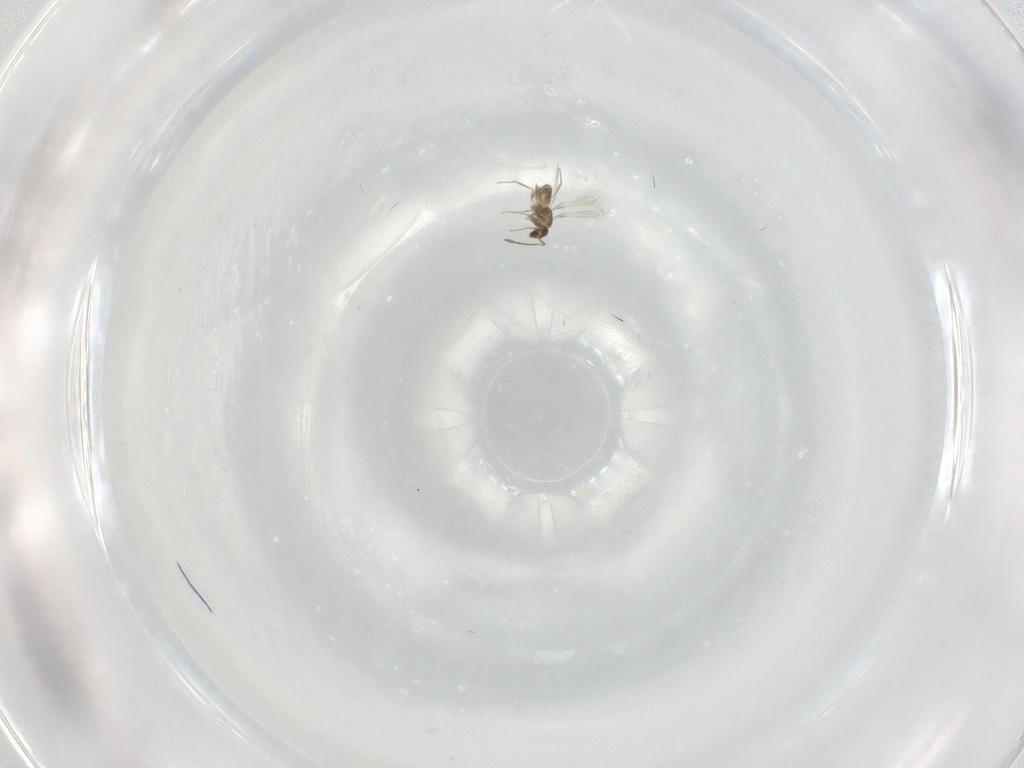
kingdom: Animalia
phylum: Arthropoda
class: Insecta
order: Hymenoptera
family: Mymaridae
